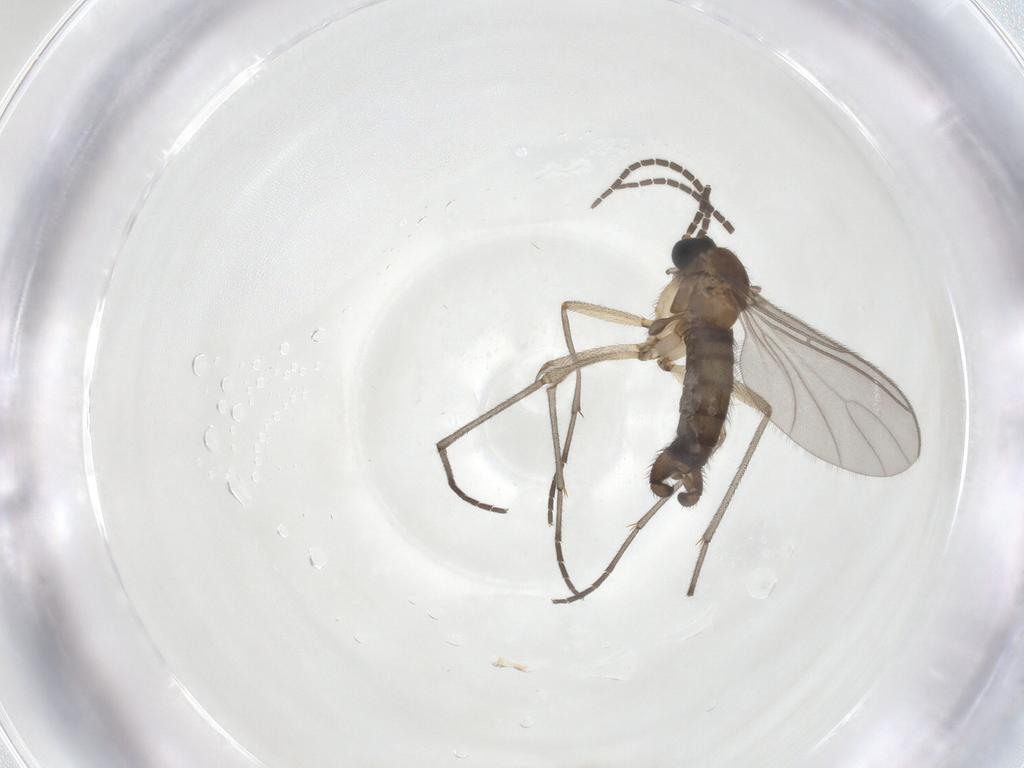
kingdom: Animalia
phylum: Arthropoda
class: Insecta
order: Diptera
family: Sciaridae
